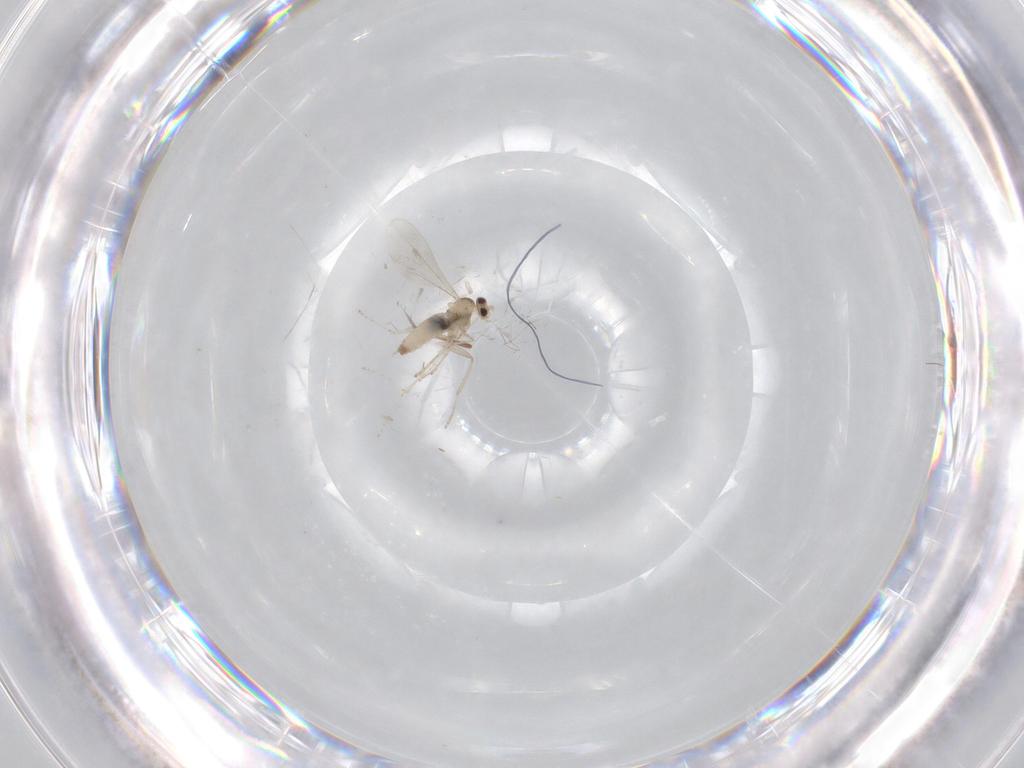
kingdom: Animalia
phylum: Arthropoda
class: Insecta
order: Diptera
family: Cecidomyiidae
